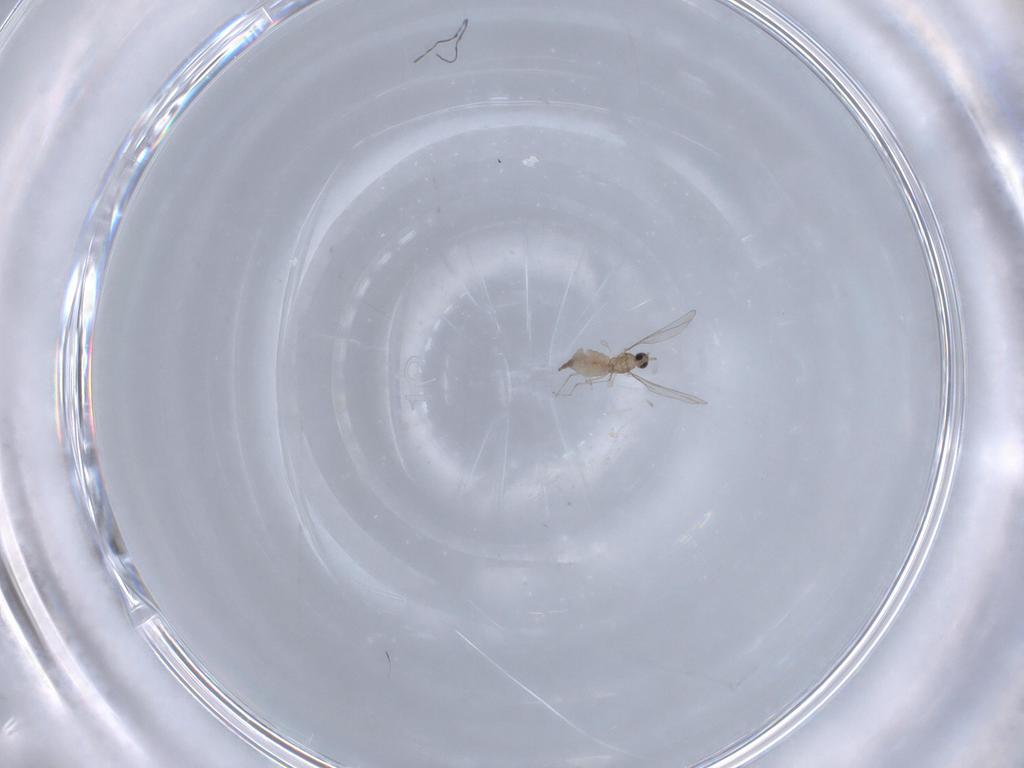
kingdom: Animalia
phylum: Arthropoda
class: Insecta
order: Diptera
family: Cecidomyiidae
